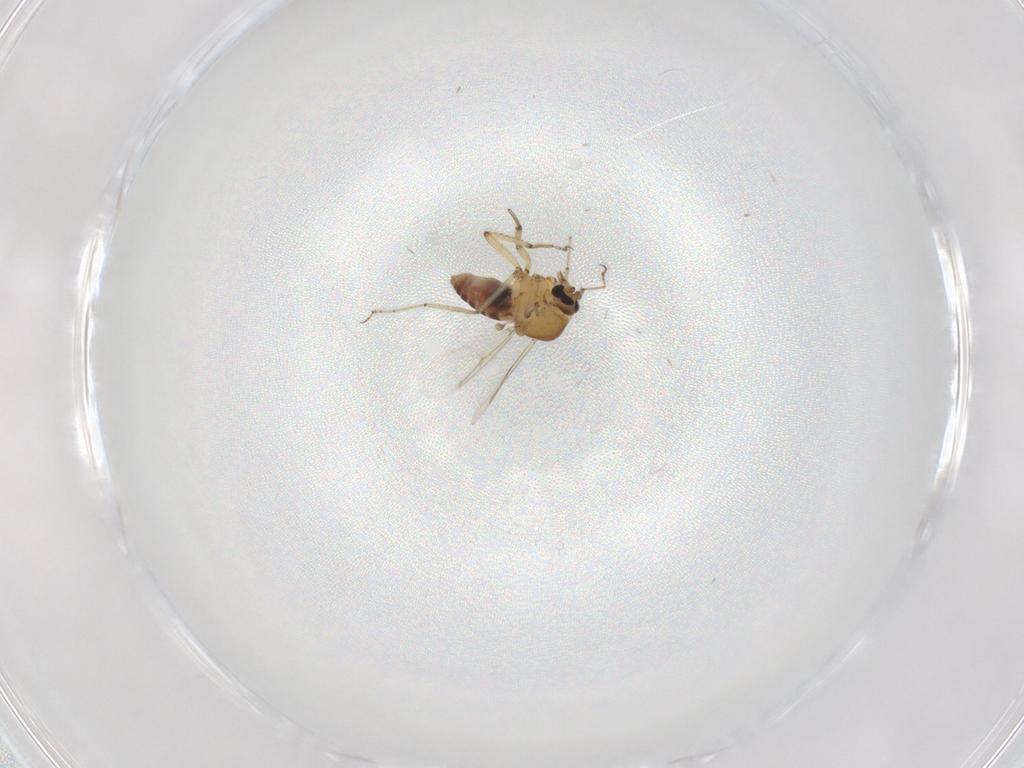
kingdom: Animalia
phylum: Arthropoda
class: Insecta
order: Diptera
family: Ceratopogonidae
